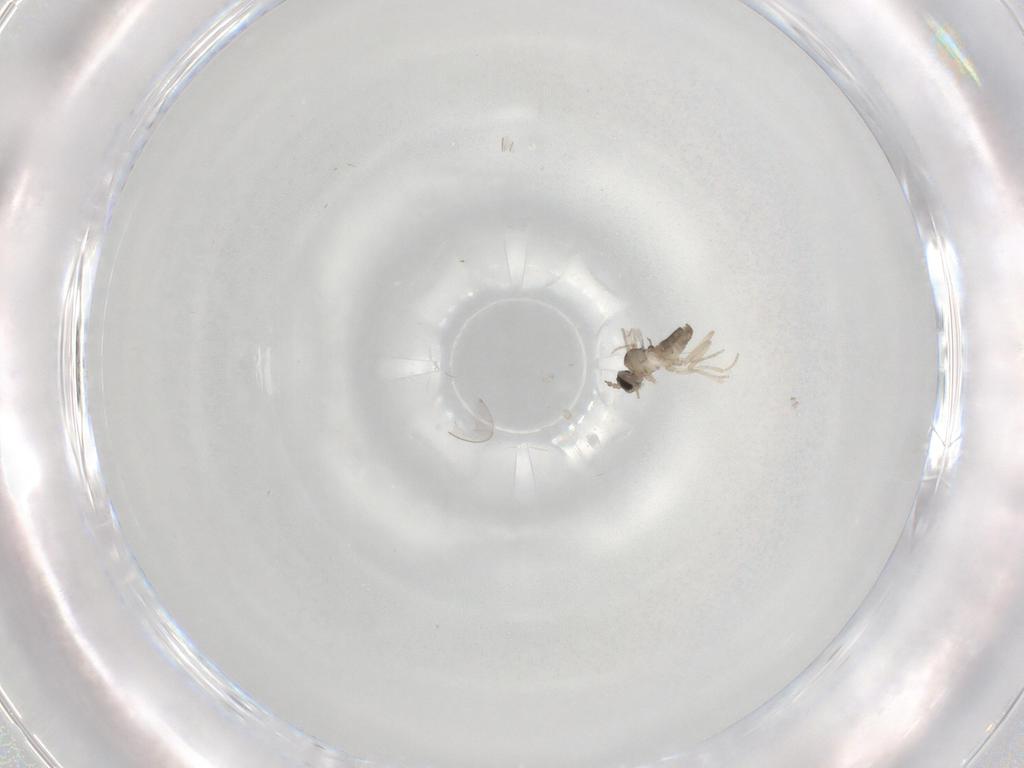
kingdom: Animalia
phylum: Arthropoda
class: Insecta
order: Diptera
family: Cecidomyiidae
